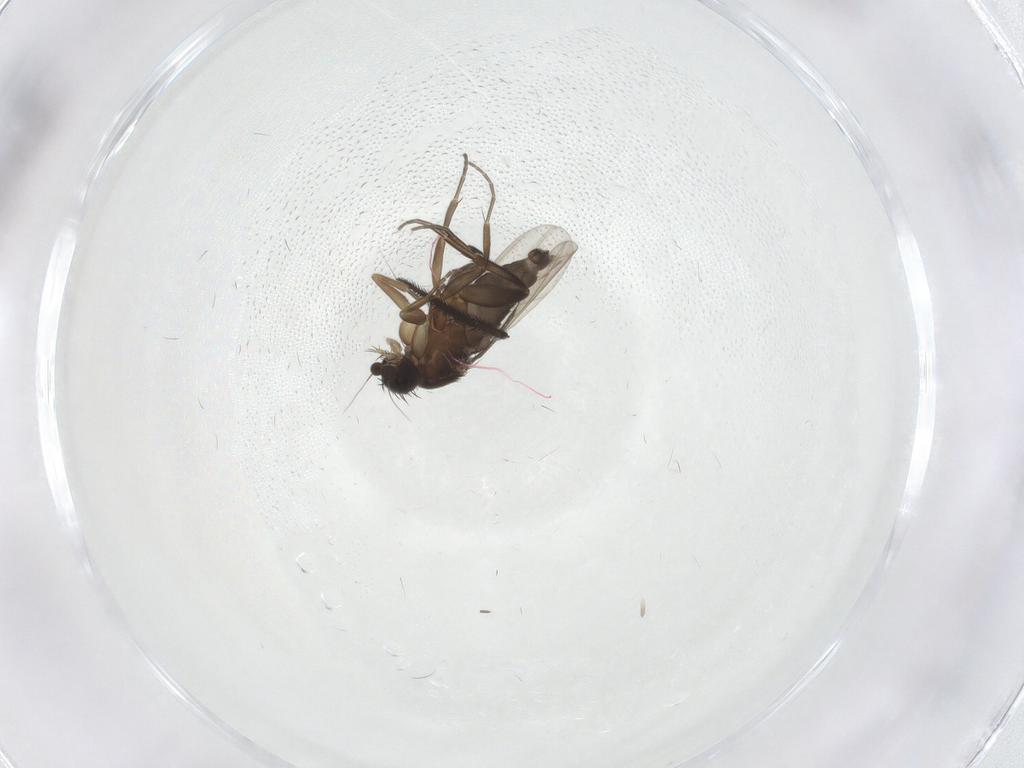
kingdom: Animalia
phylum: Arthropoda
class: Insecta
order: Diptera
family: Phoridae
